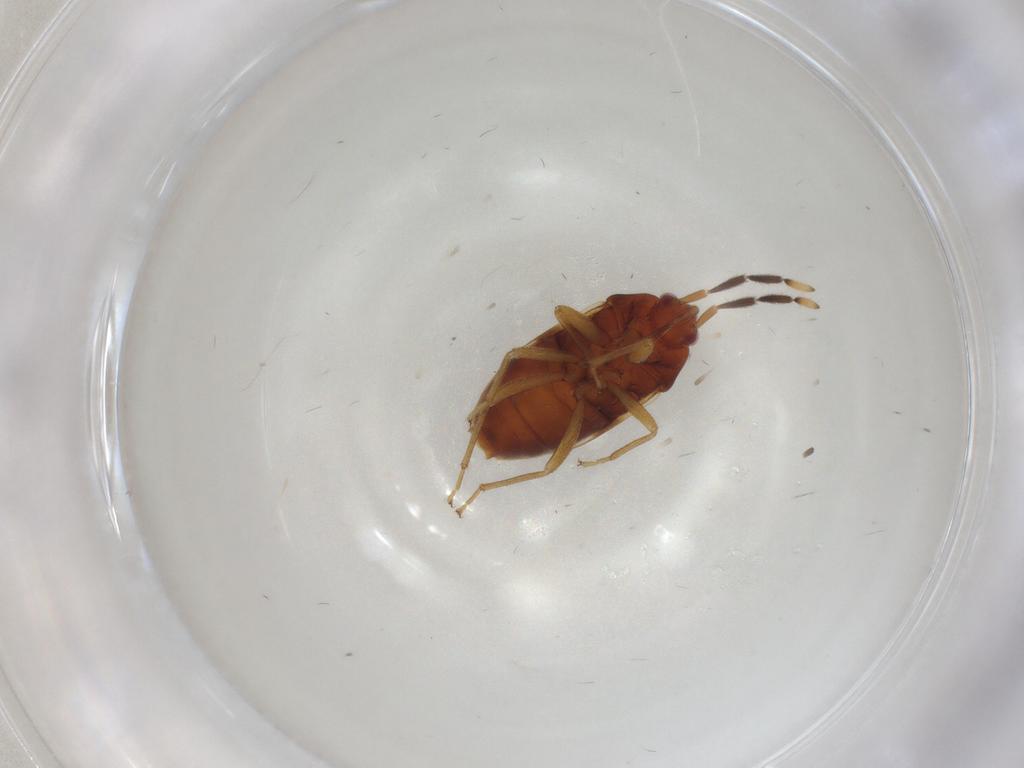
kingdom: Animalia
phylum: Arthropoda
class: Insecta
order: Hemiptera
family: Rhyparochromidae
